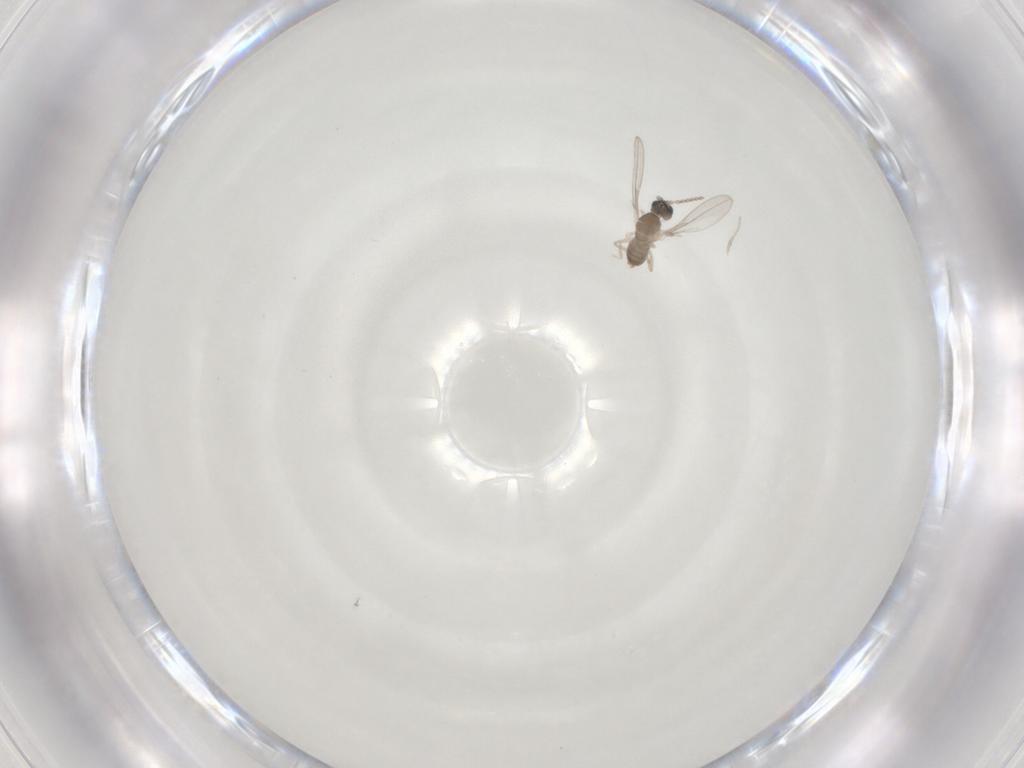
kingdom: Animalia
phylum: Arthropoda
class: Insecta
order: Diptera
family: Cecidomyiidae
